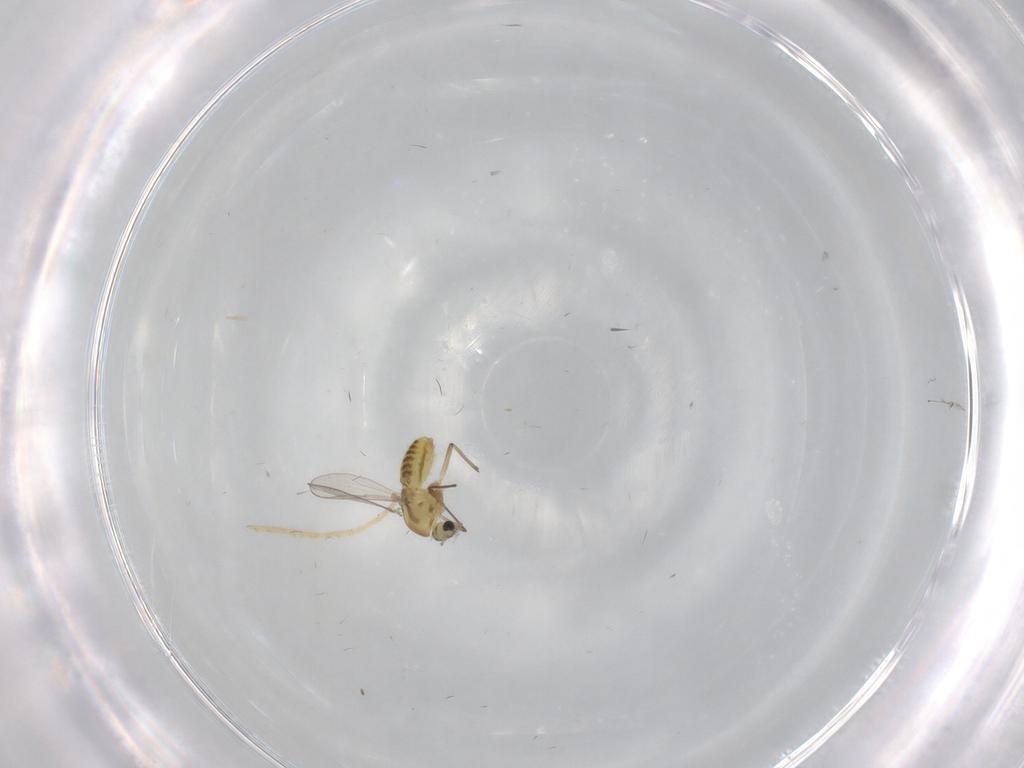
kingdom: Animalia
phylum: Arthropoda
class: Insecta
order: Diptera
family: Chironomidae
